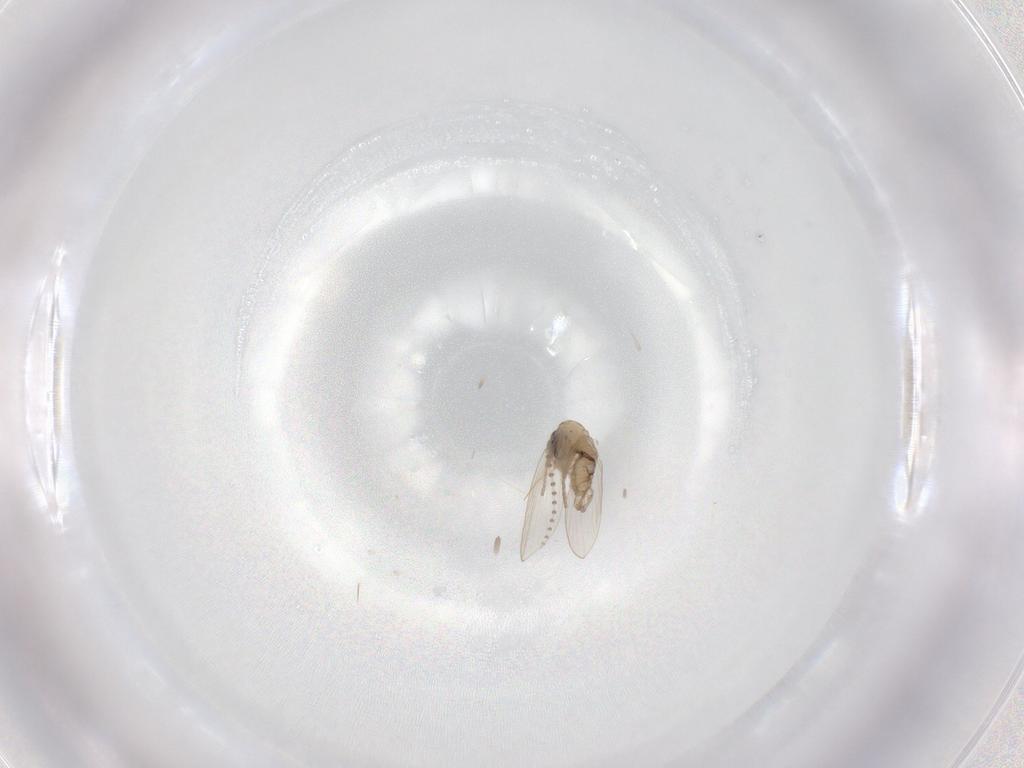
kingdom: Animalia
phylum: Arthropoda
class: Insecta
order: Diptera
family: Psychodidae
